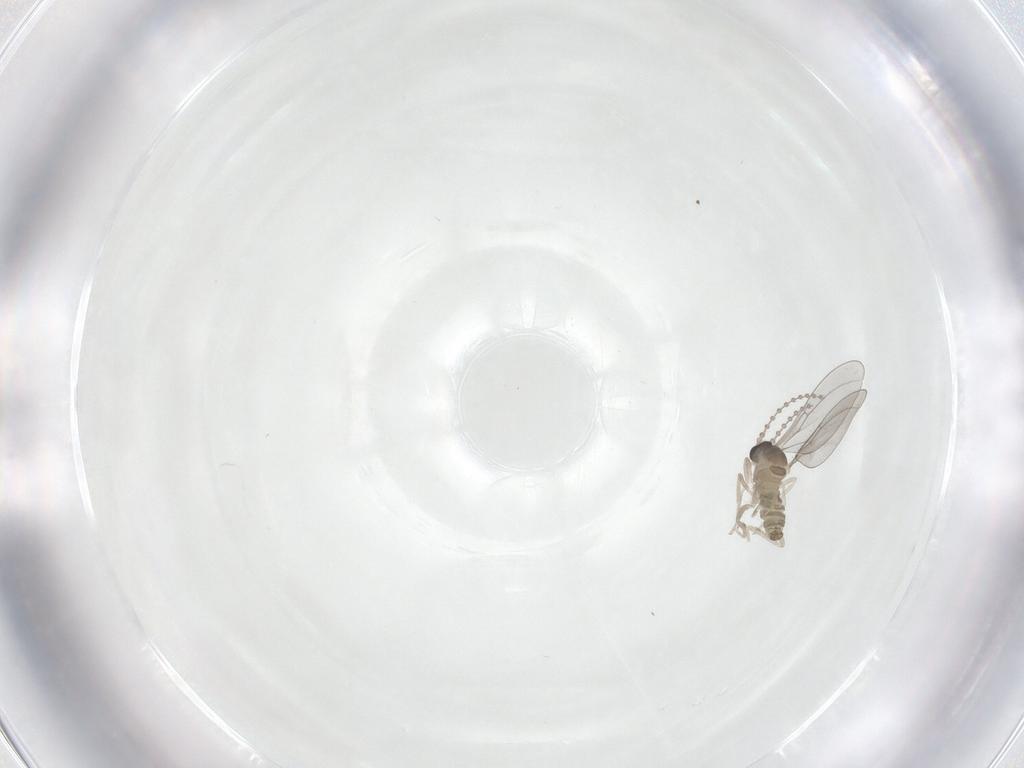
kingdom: Animalia
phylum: Arthropoda
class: Insecta
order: Diptera
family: Cecidomyiidae
